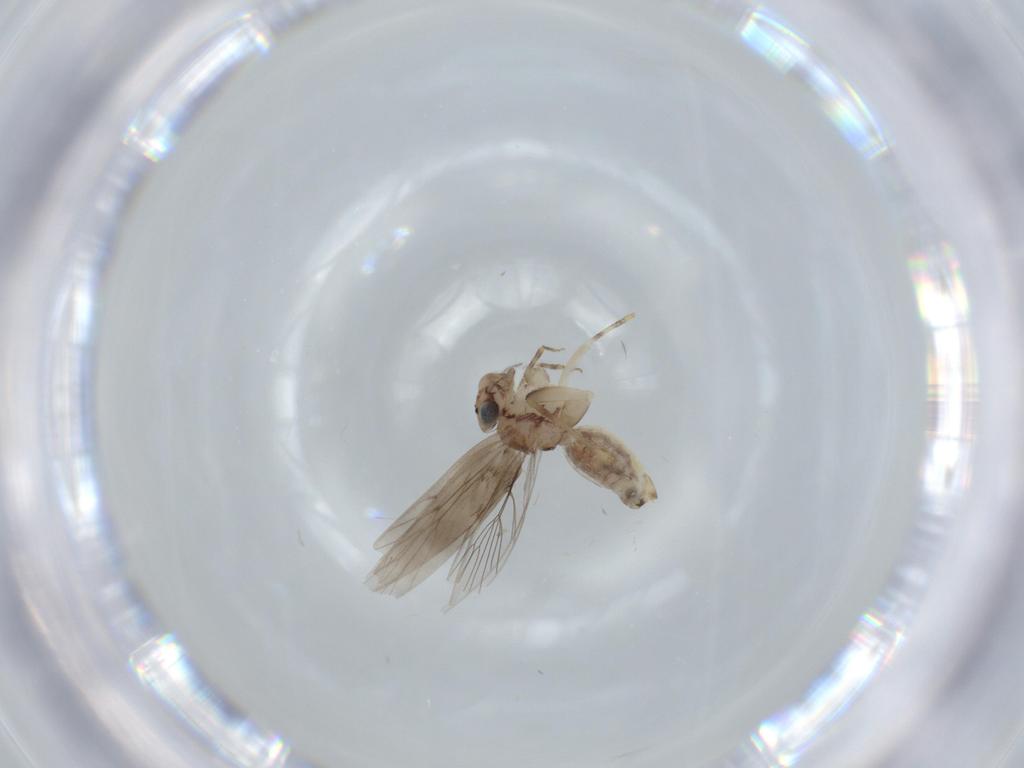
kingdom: Animalia
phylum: Arthropoda
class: Insecta
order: Psocodea
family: Lepidopsocidae
